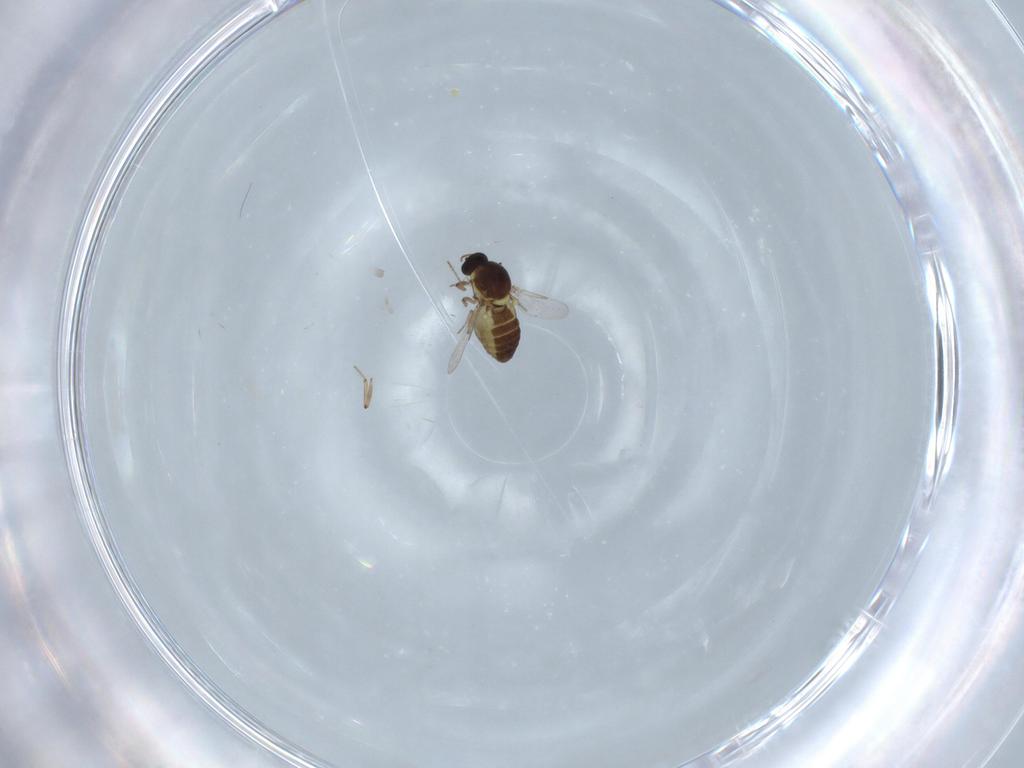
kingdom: Animalia
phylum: Arthropoda
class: Insecta
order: Diptera
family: Ceratopogonidae
